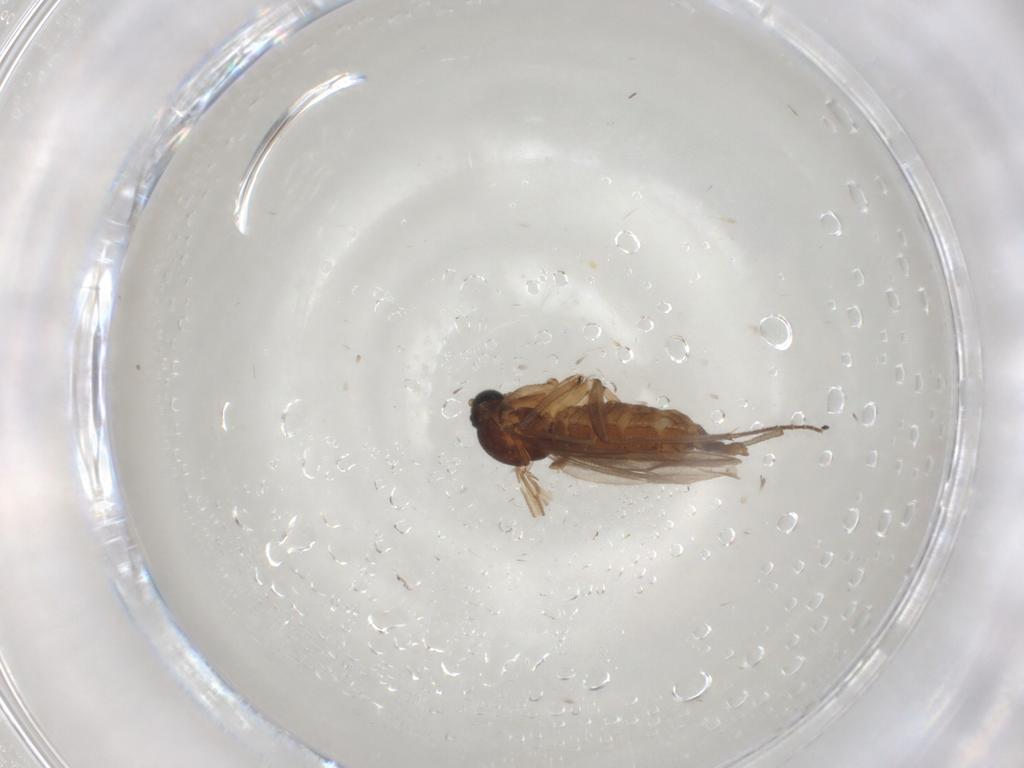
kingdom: Animalia
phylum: Arthropoda
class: Insecta
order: Diptera
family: Sciaridae
